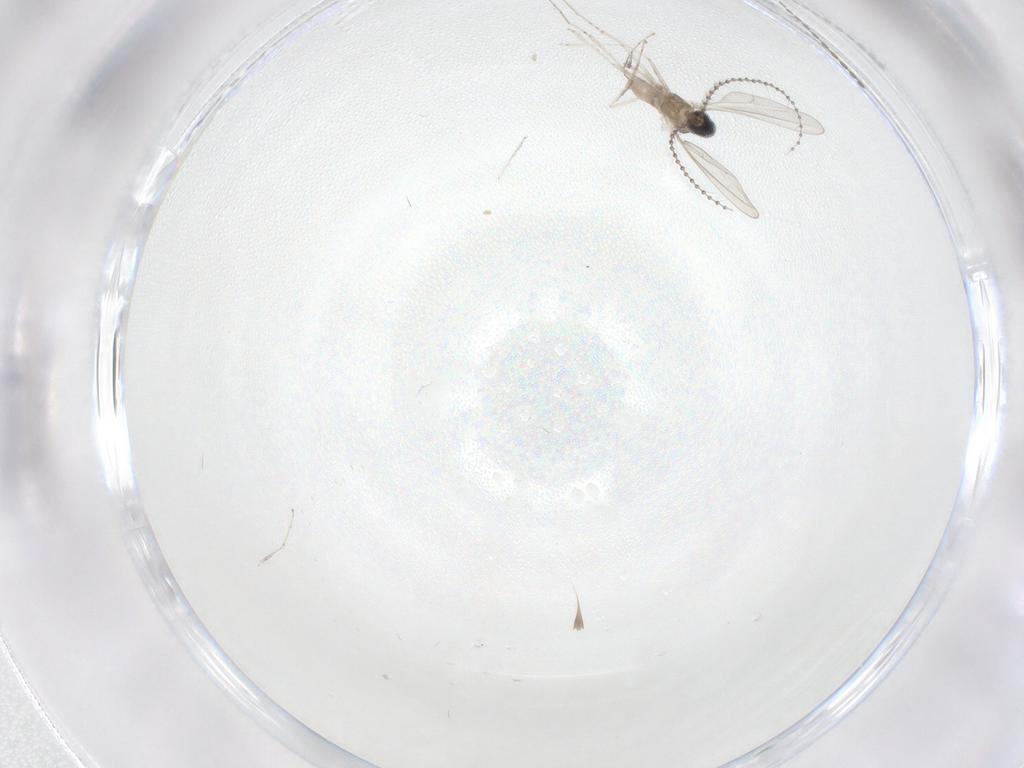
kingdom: Animalia
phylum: Arthropoda
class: Insecta
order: Diptera
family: Cecidomyiidae
